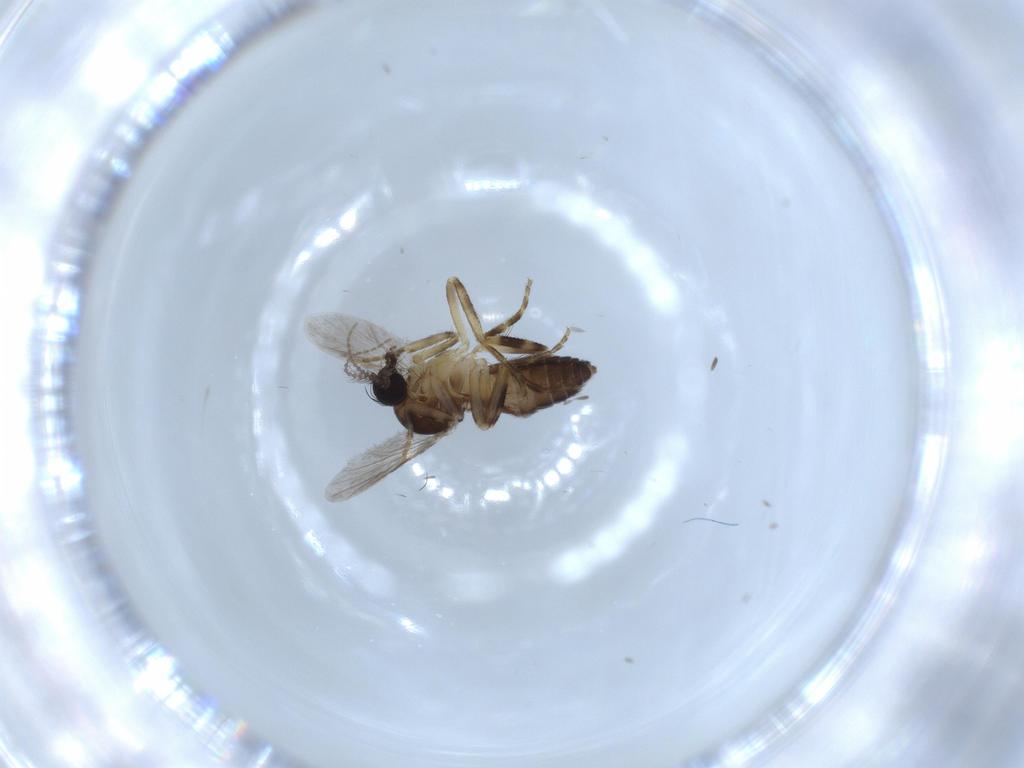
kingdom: Animalia
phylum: Arthropoda
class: Insecta
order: Diptera
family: Ceratopogonidae
